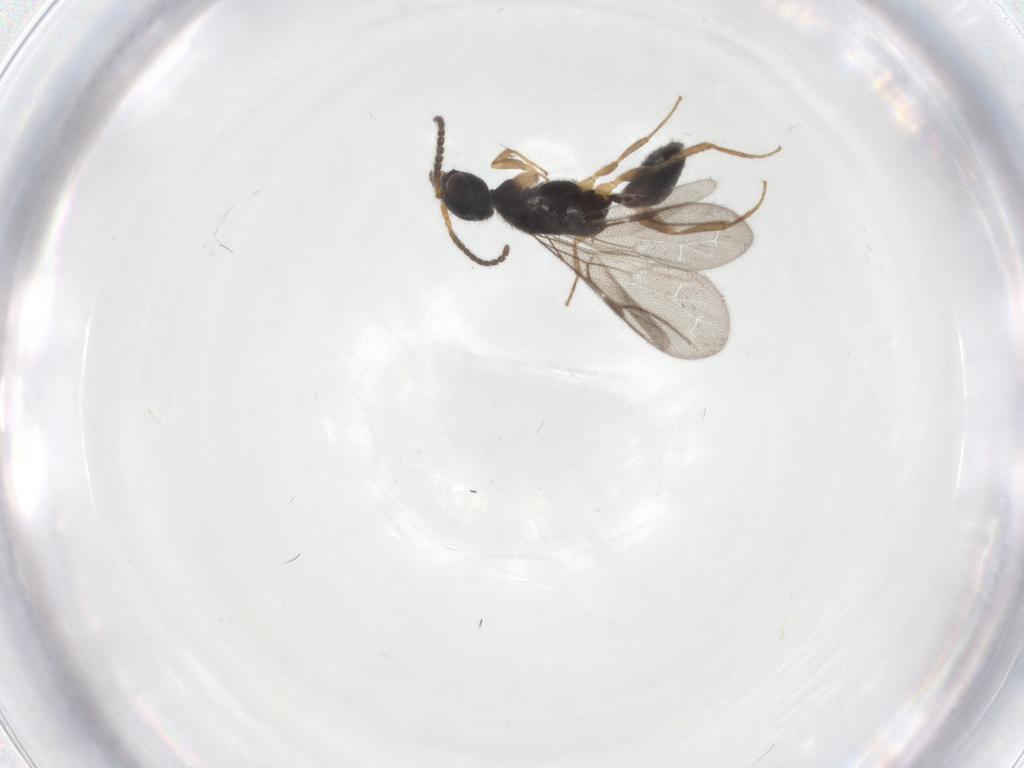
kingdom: Animalia
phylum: Arthropoda
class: Insecta
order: Hymenoptera
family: Bethylidae
